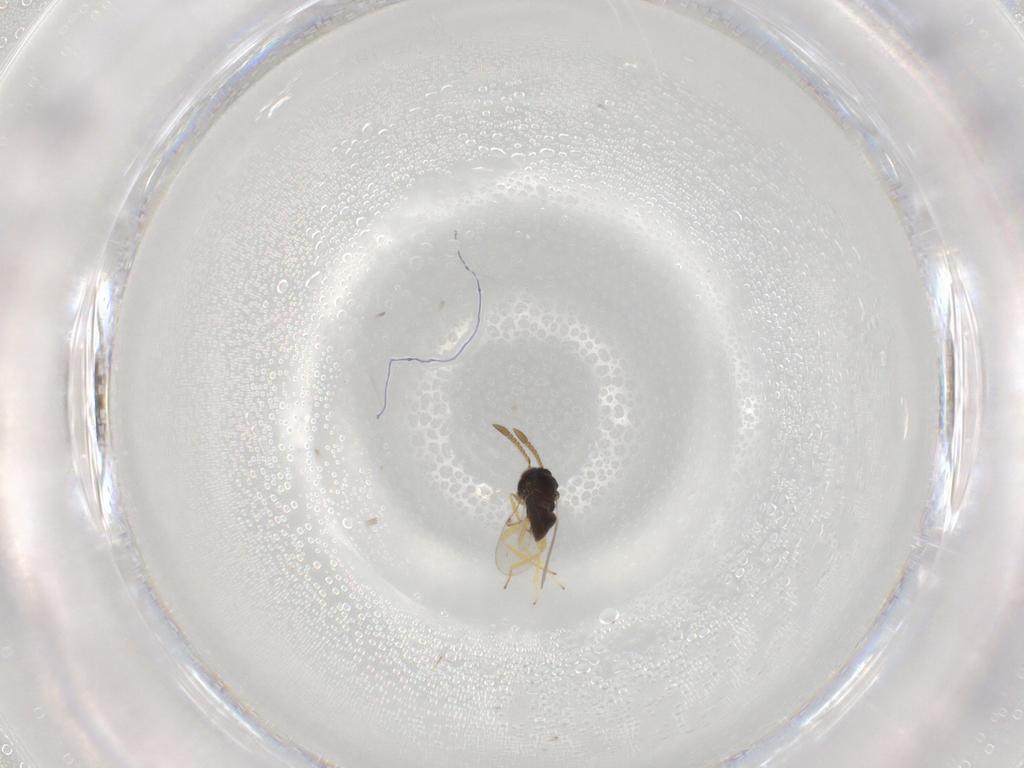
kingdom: Animalia
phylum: Arthropoda
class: Insecta
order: Hymenoptera
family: Encyrtidae
